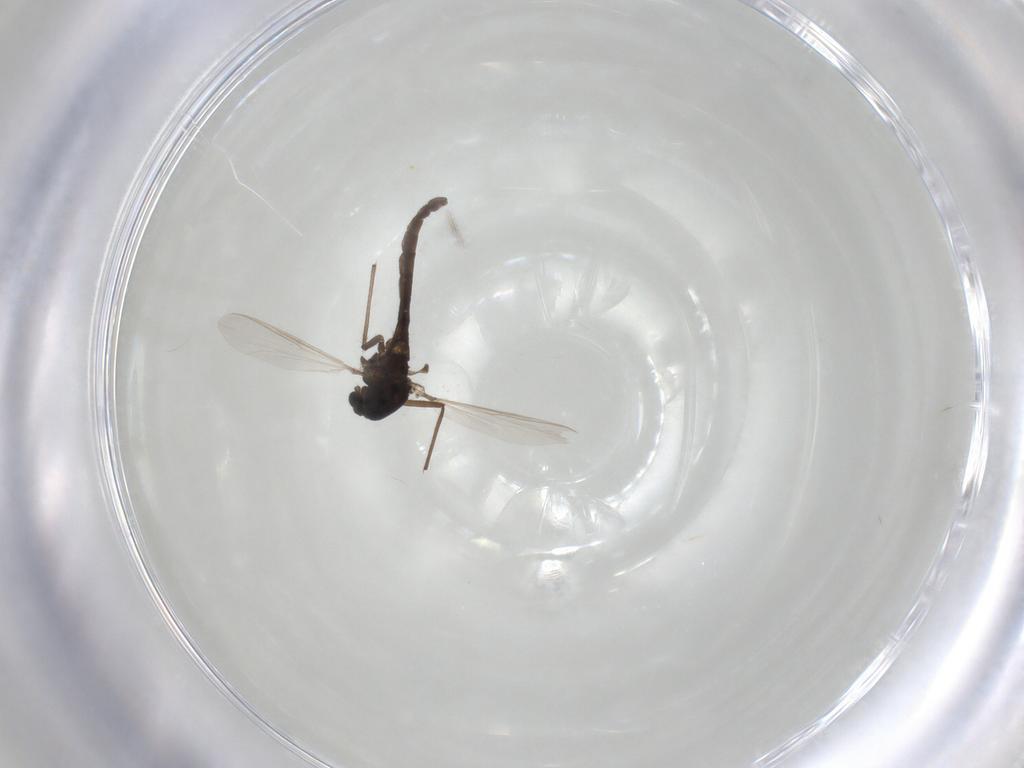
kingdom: Animalia
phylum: Arthropoda
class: Insecta
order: Diptera
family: Chironomidae
